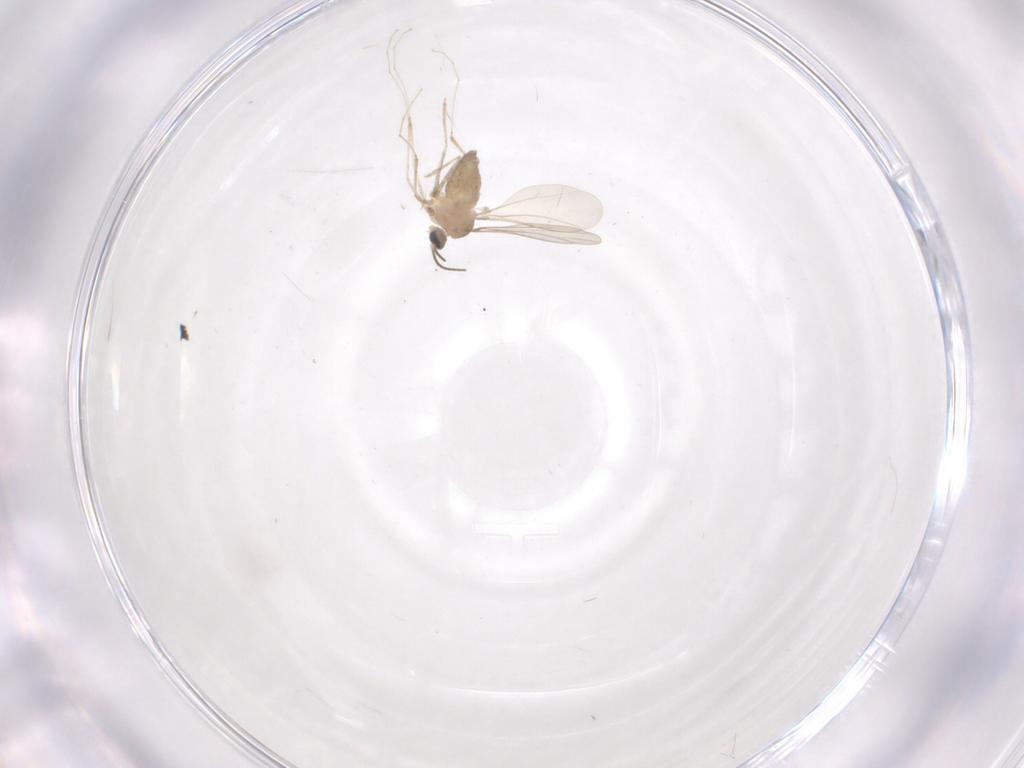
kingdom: Animalia
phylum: Arthropoda
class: Insecta
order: Diptera
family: Cecidomyiidae
